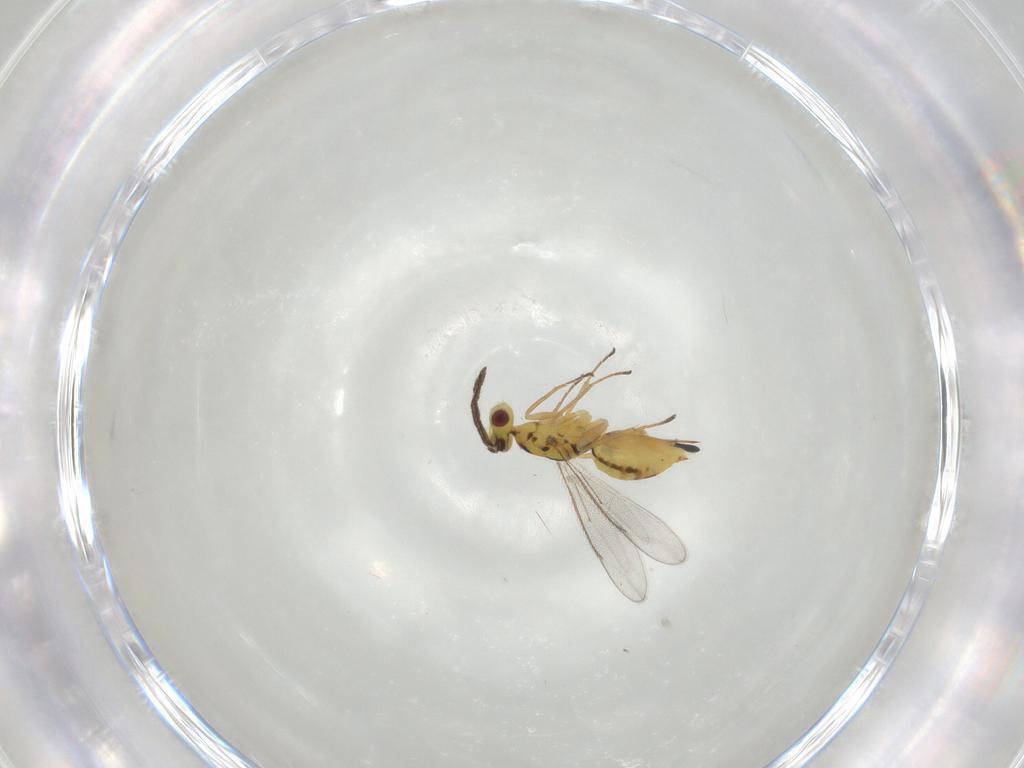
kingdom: Animalia
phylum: Arthropoda
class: Insecta
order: Hymenoptera
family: Eulophidae
